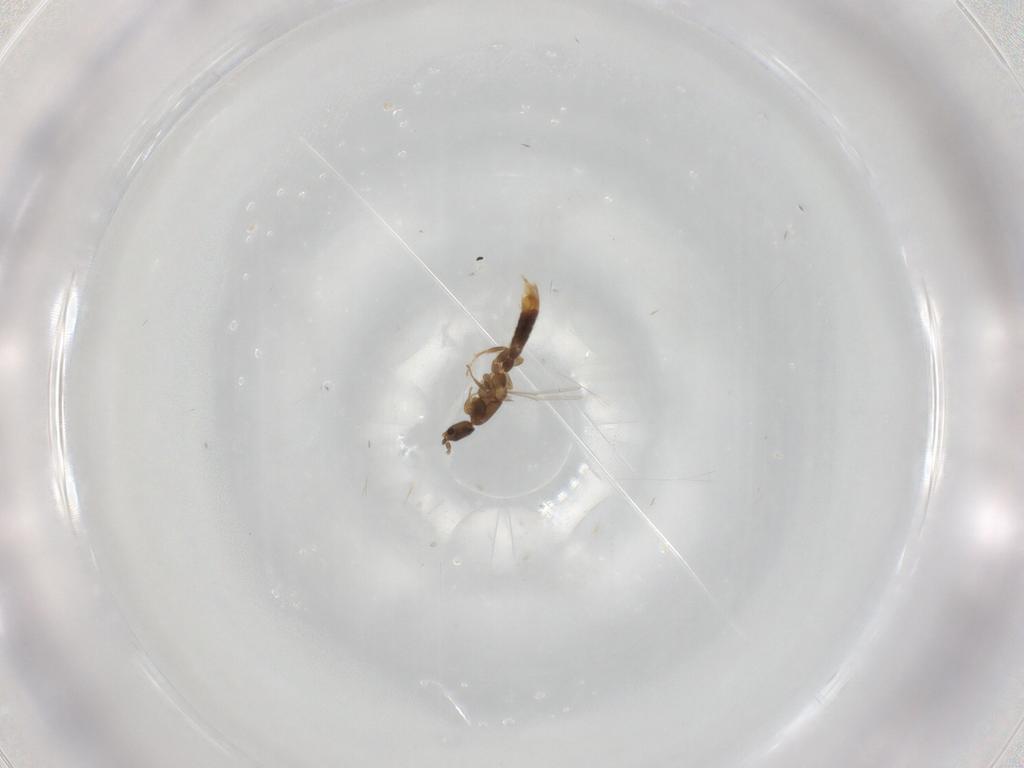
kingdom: Animalia
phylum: Arthropoda
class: Insecta
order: Hymenoptera
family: Formicidae
